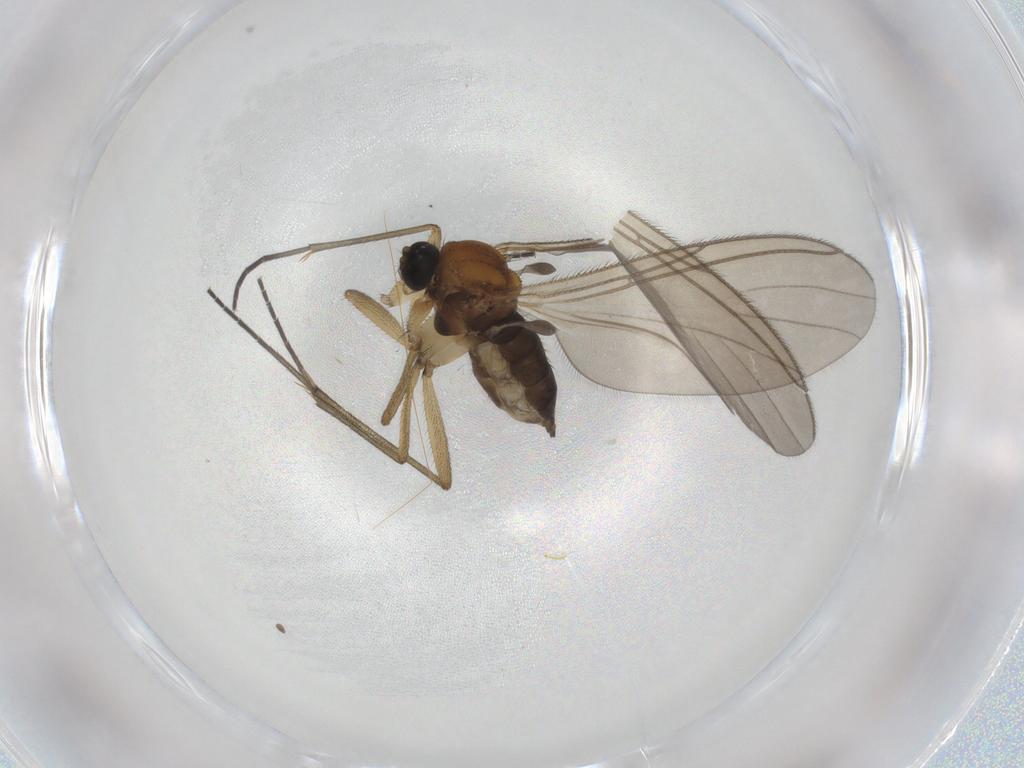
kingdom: Animalia
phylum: Arthropoda
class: Insecta
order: Diptera
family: Sciaridae
